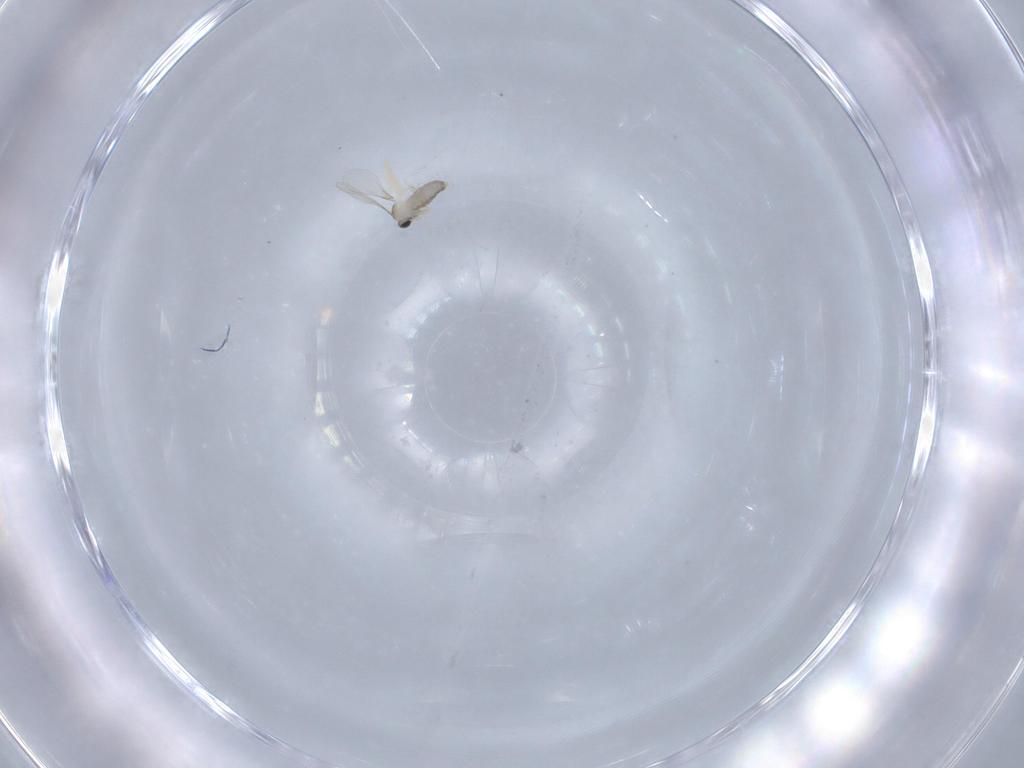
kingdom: Animalia
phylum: Arthropoda
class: Insecta
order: Diptera
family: Cecidomyiidae
